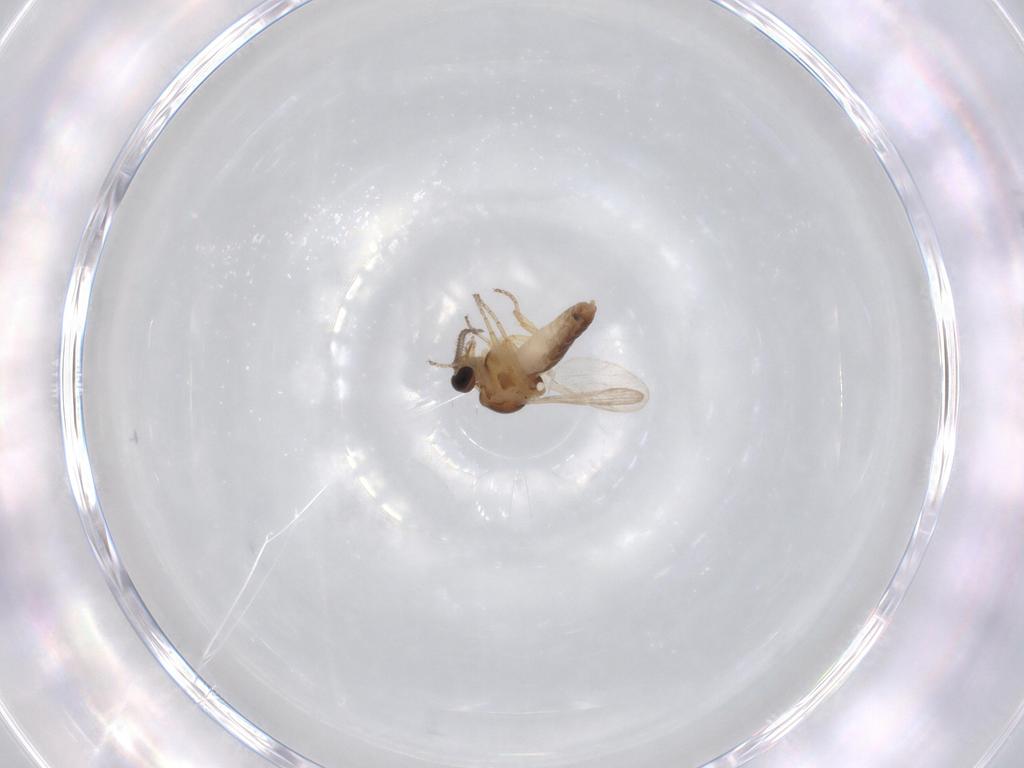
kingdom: Animalia
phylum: Arthropoda
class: Insecta
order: Diptera
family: Ceratopogonidae
